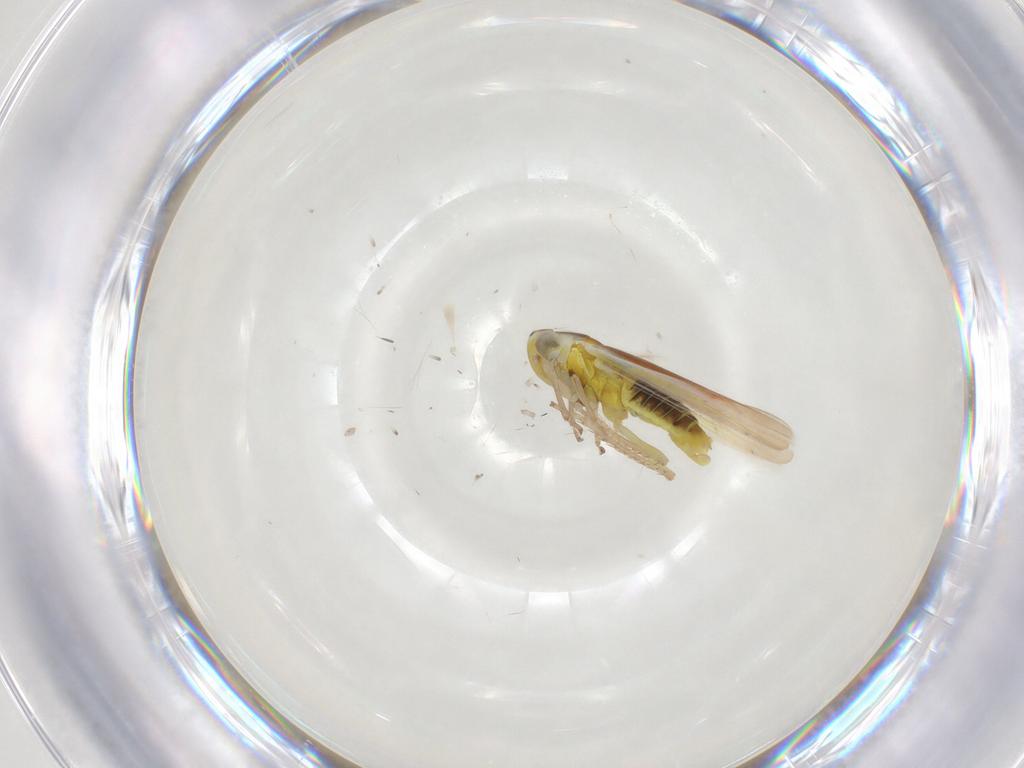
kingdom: Animalia
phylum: Arthropoda
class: Insecta
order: Hemiptera
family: Cicadellidae
